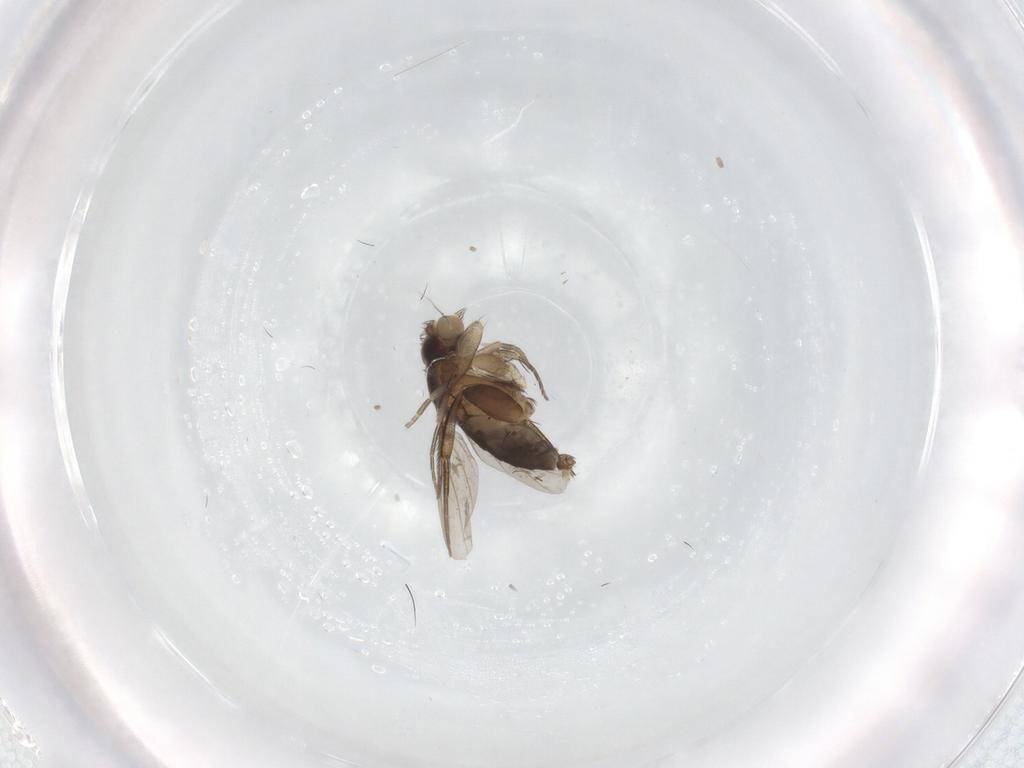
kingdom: Animalia
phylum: Arthropoda
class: Insecta
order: Diptera
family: Phoridae
